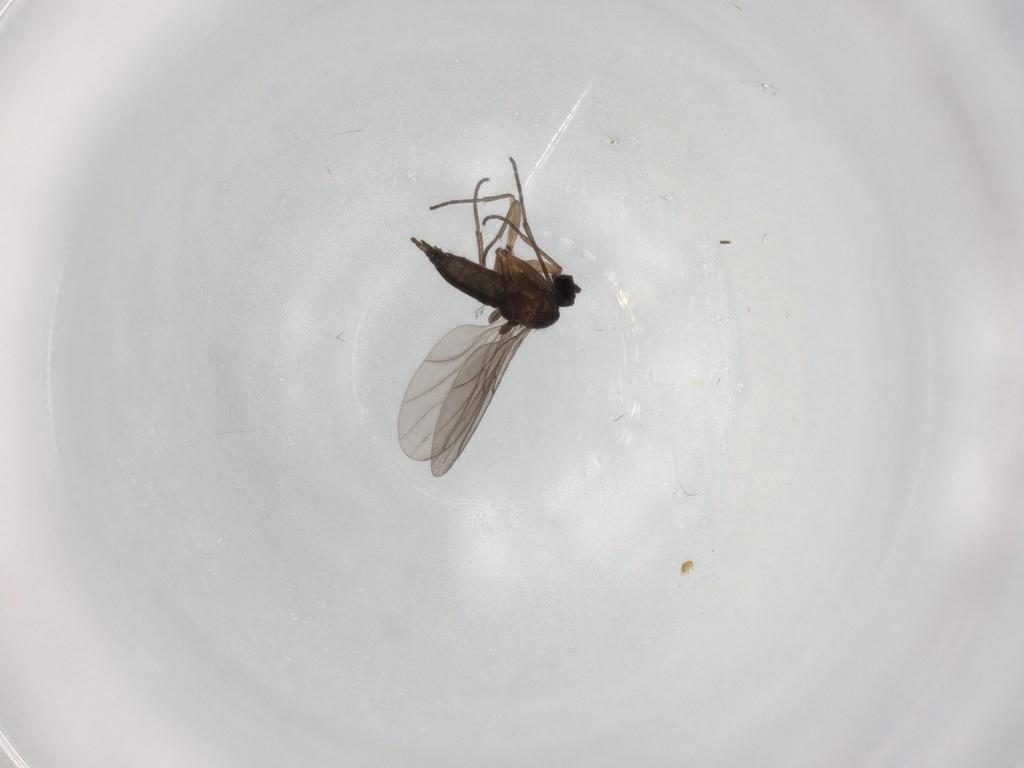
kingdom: Animalia
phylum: Arthropoda
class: Insecta
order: Diptera
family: Sciaridae
